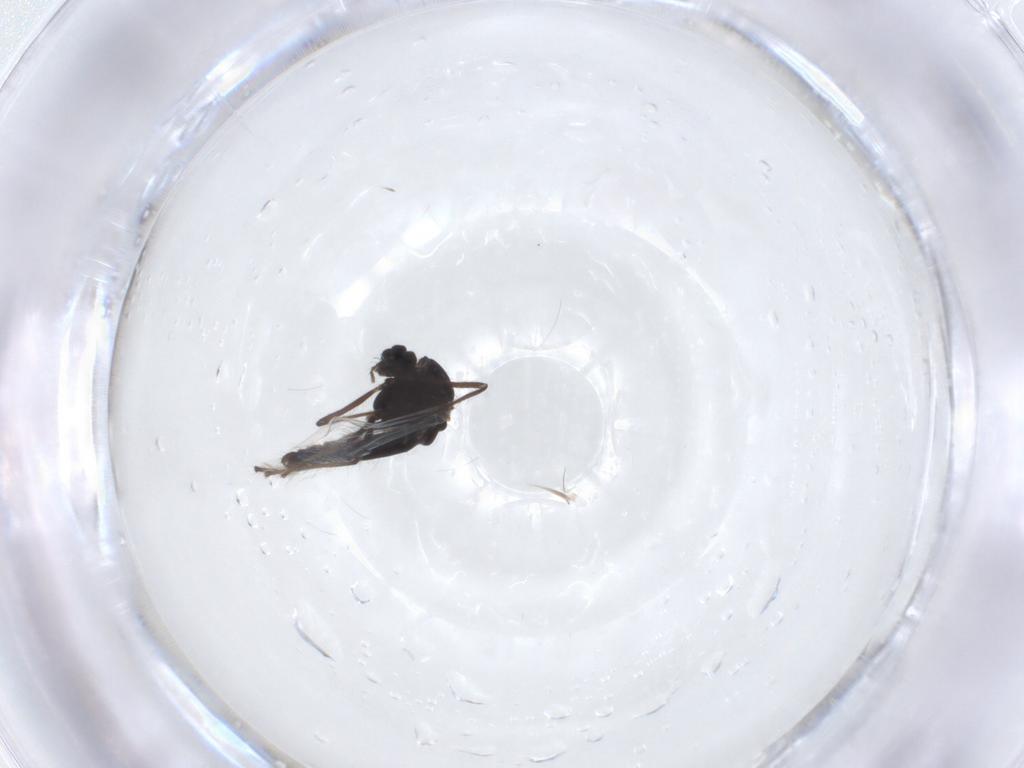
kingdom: Animalia
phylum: Arthropoda
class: Insecta
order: Diptera
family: Chironomidae
